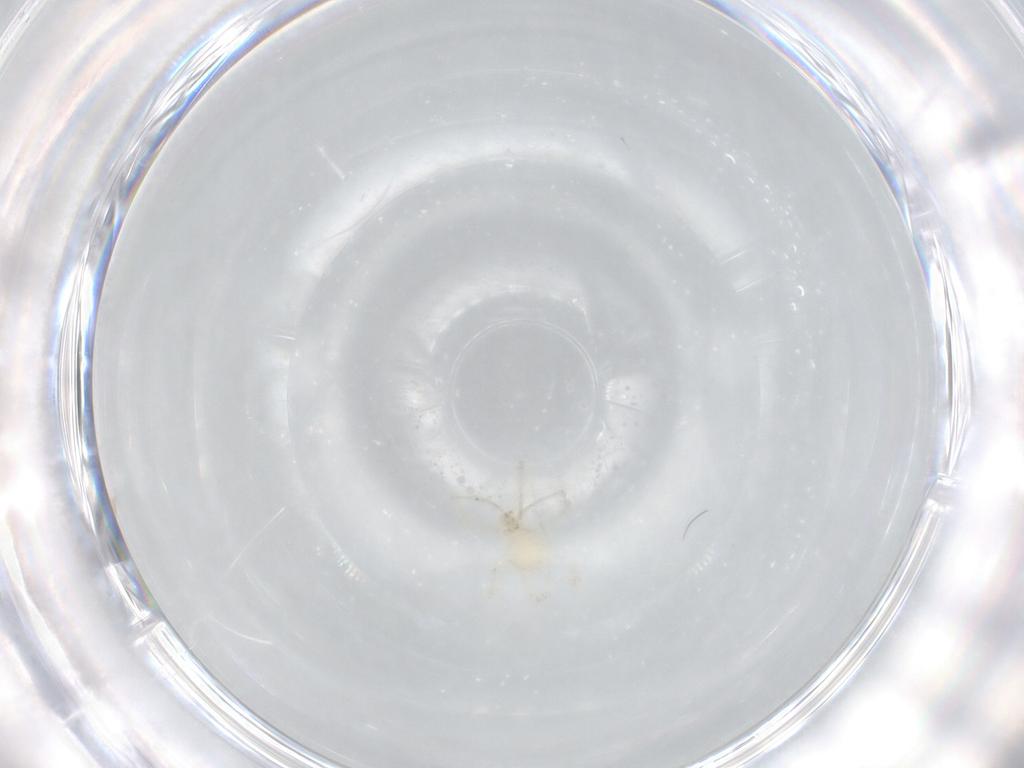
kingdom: Animalia
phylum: Arthropoda
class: Arachnida
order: Trombidiformes
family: Erythraeidae
